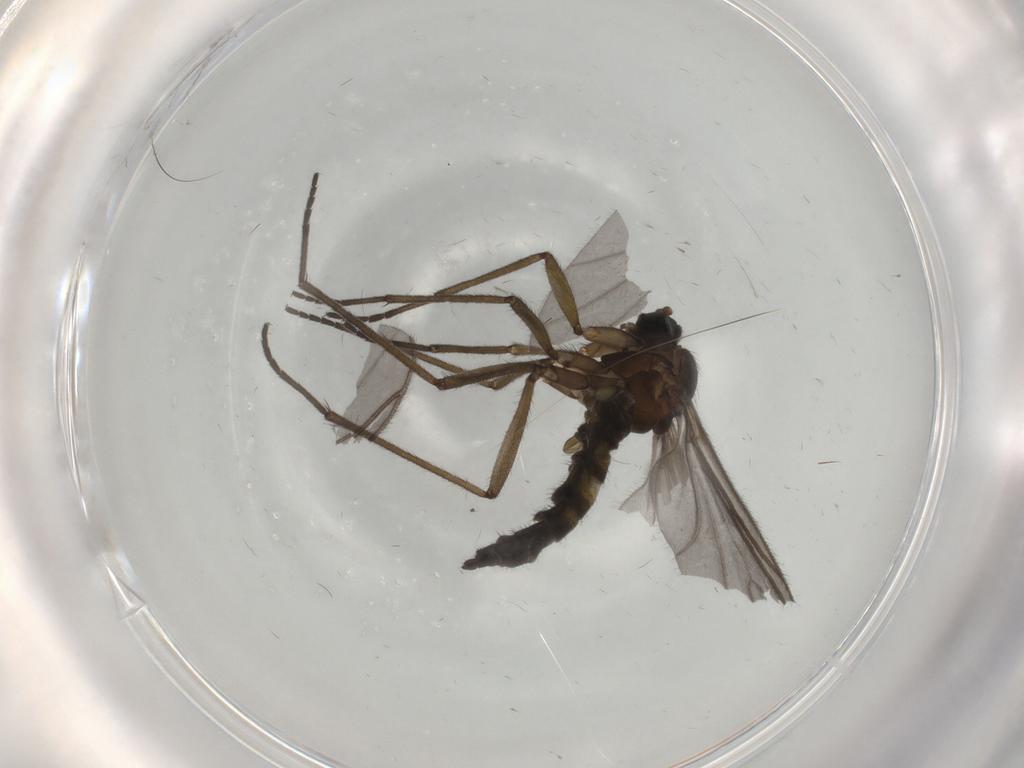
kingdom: Animalia
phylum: Arthropoda
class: Insecta
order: Diptera
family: Sciaridae
